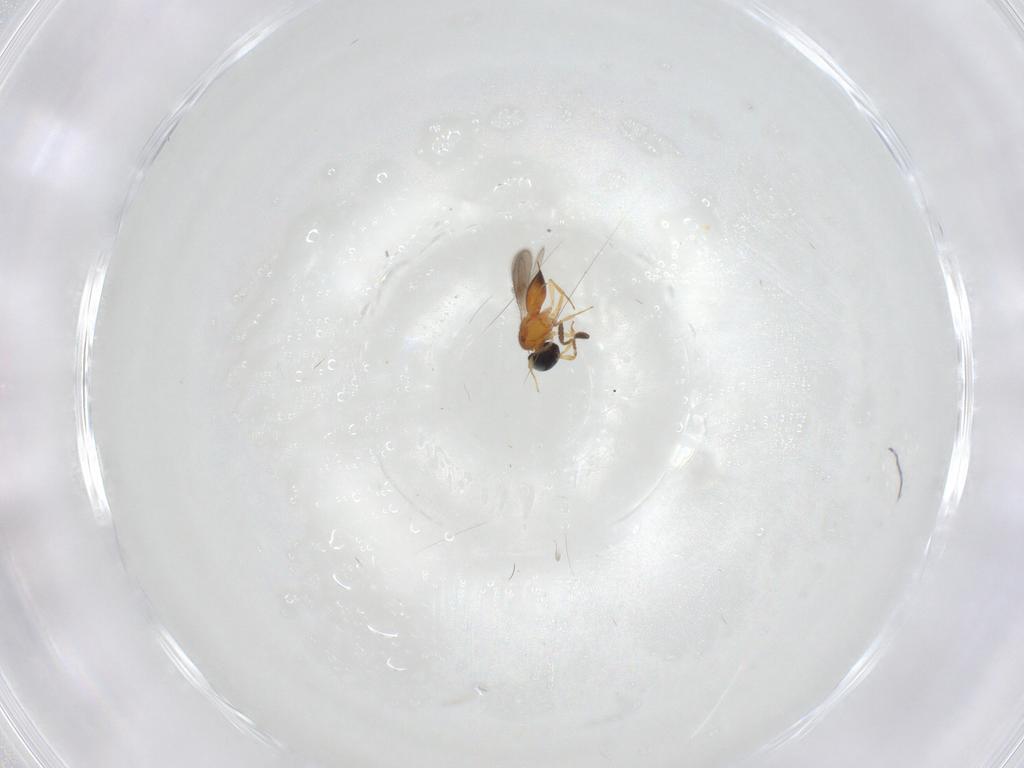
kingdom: Animalia
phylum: Arthropoda
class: Insecta
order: Hymenoptera
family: Scelionidae
